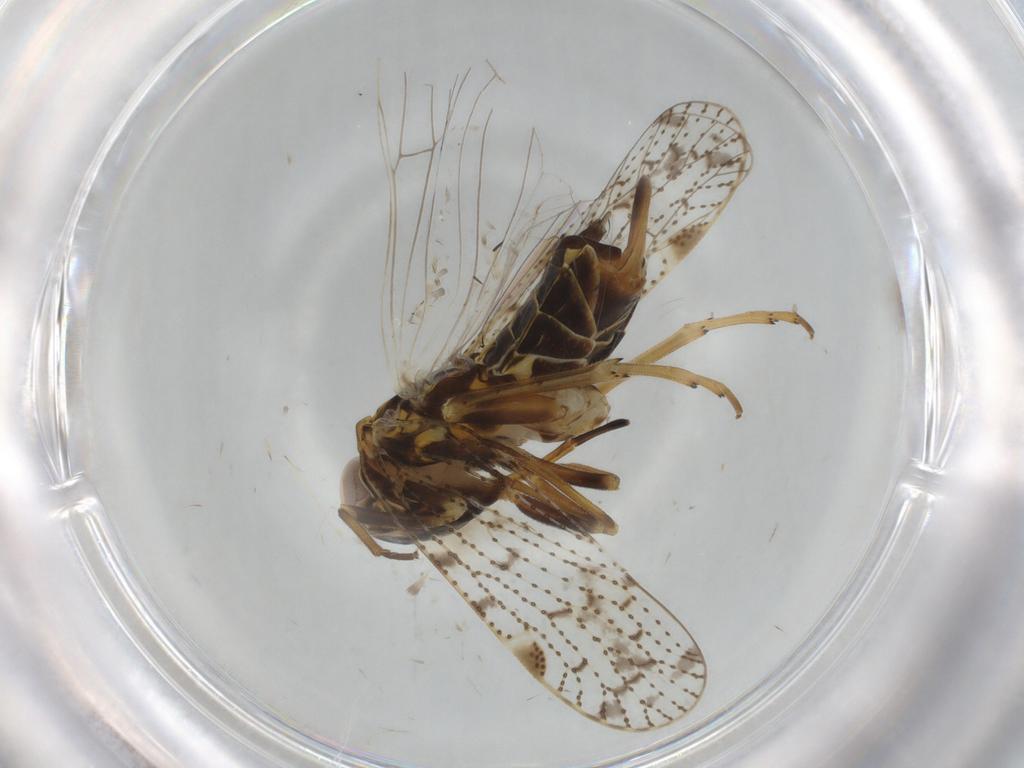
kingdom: Animalia
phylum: Arthropoda
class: Insecta
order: Hemiptera
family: Cixiidae
